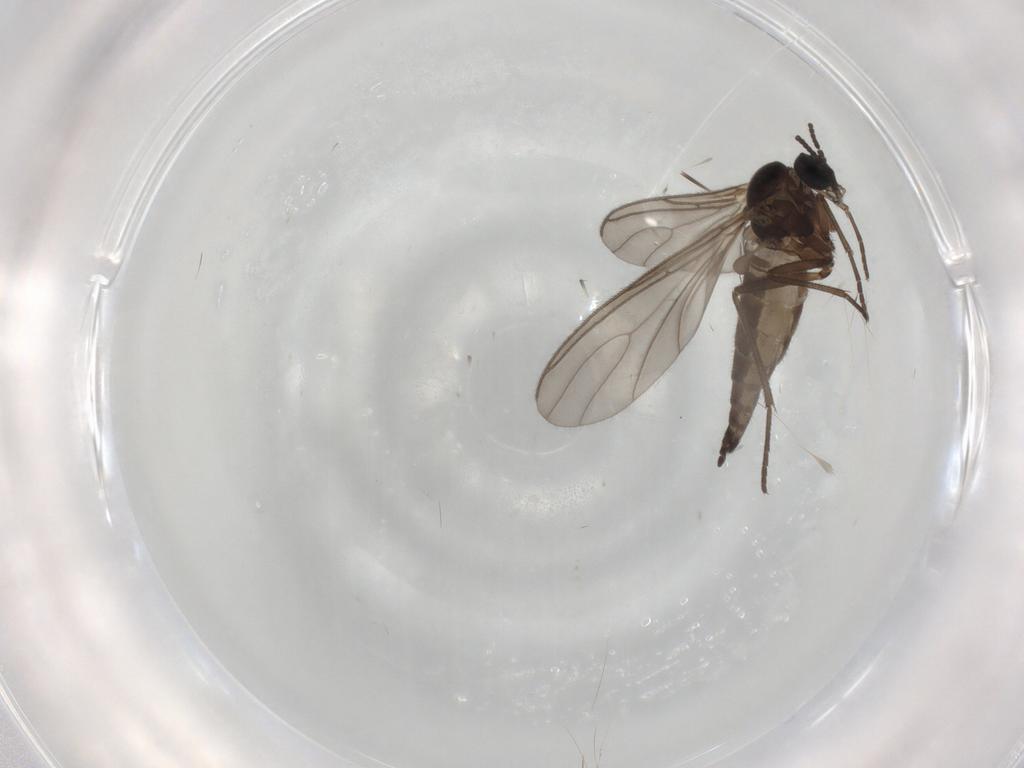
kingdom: Animalia
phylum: Arthropoda
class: Insecta
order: Diptera
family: Sciaridae
